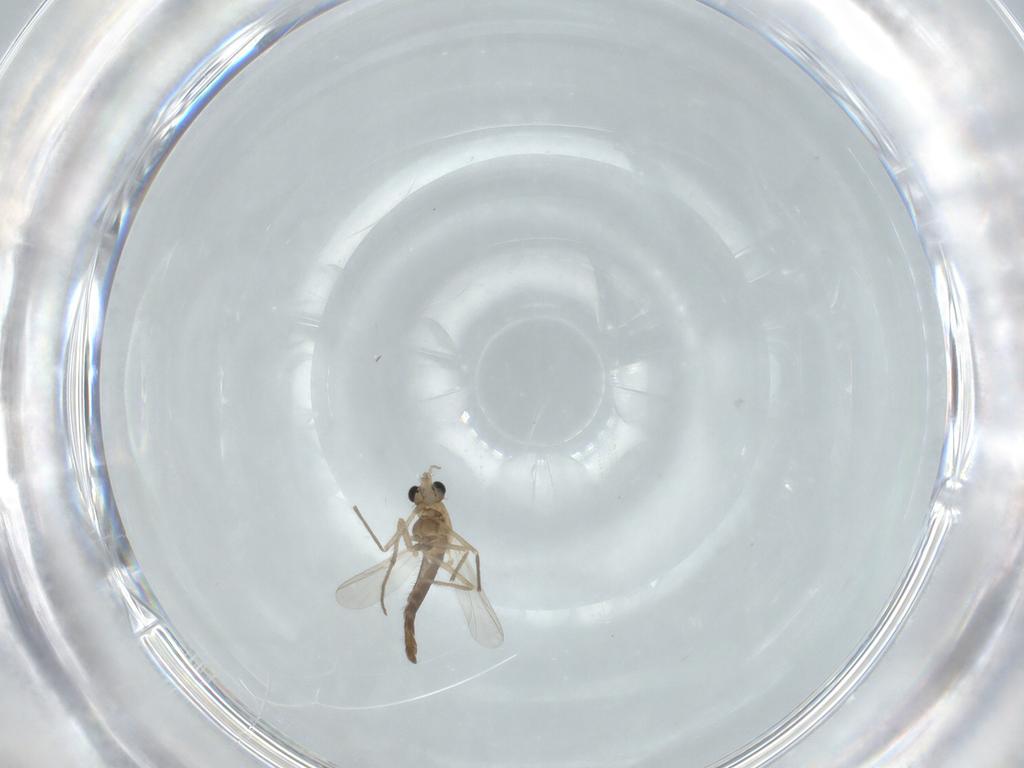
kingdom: Animalia
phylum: Arthropoda
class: Insecta
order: Diptera
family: Chironomidae
